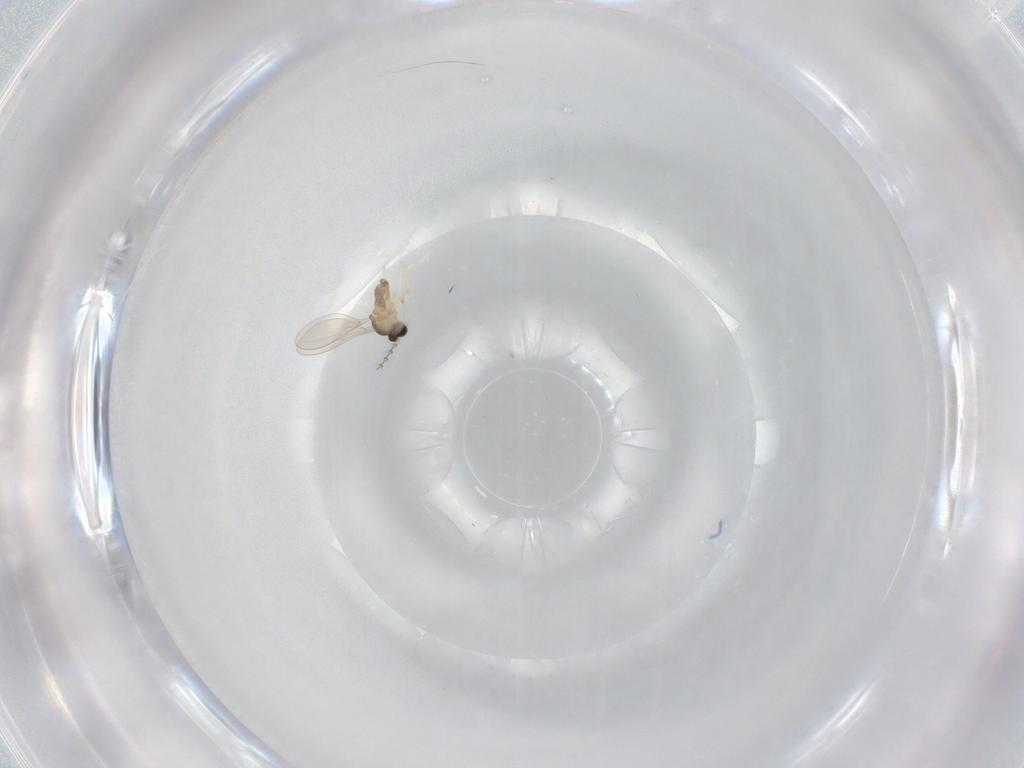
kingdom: Animalia
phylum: Arthropoda
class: Insecta
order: Diptera
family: Cecidomyiidae
